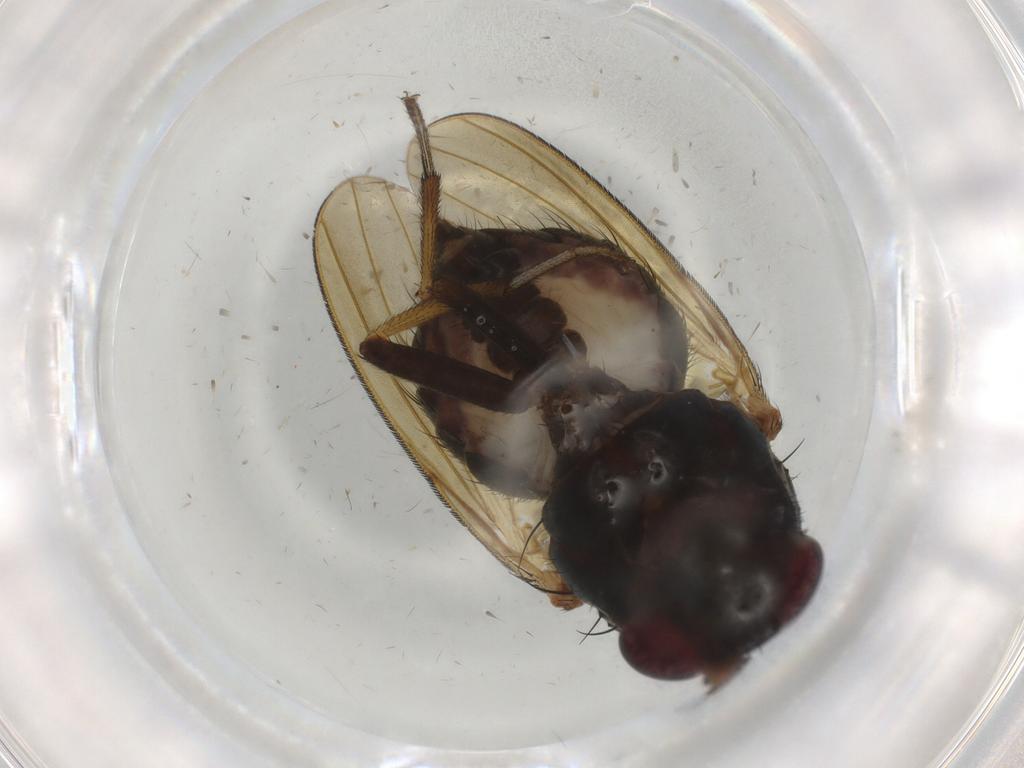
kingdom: Animalia
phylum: Arthropoda
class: Insecta
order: Diptera
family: Lauxaniidae
